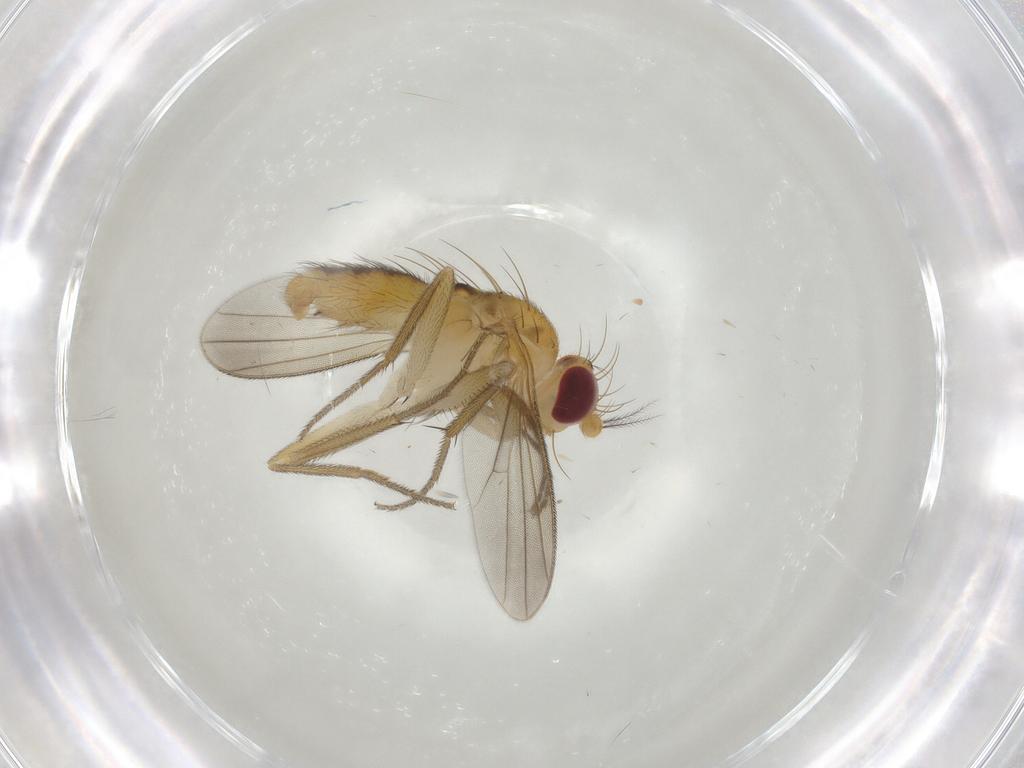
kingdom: Animalia
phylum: Arthropoda
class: Insecta
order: Diptera
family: Clusiidae
